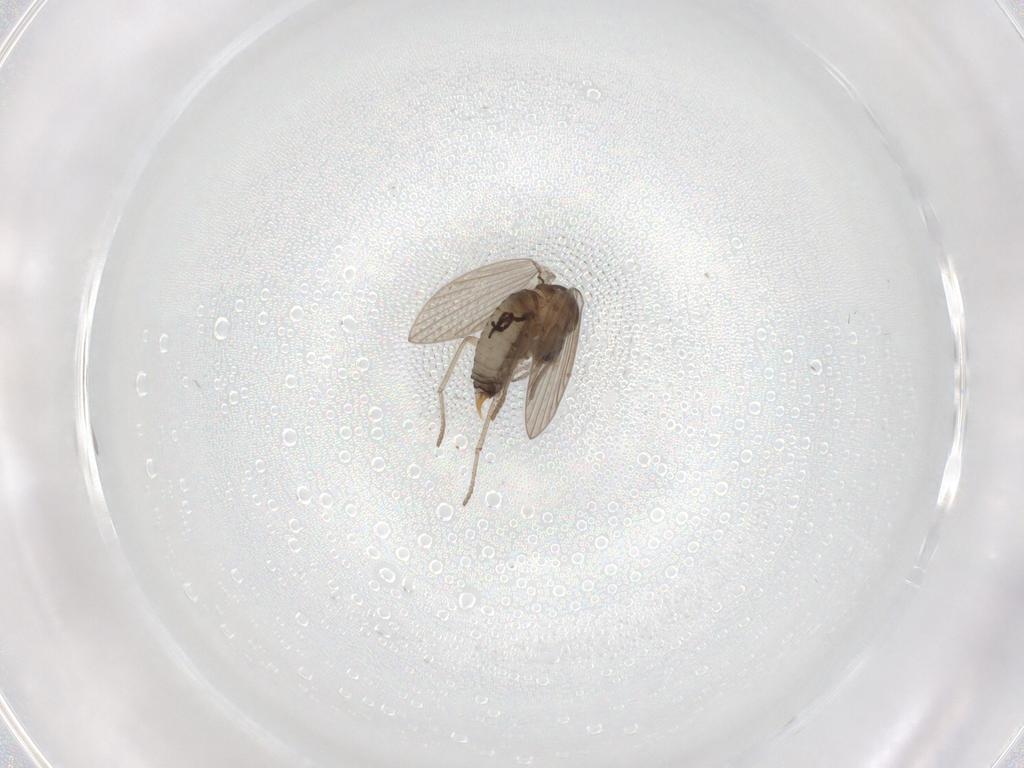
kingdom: Animalia
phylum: Arthropoda
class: Insecta
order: Diptera
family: Psychodidae
